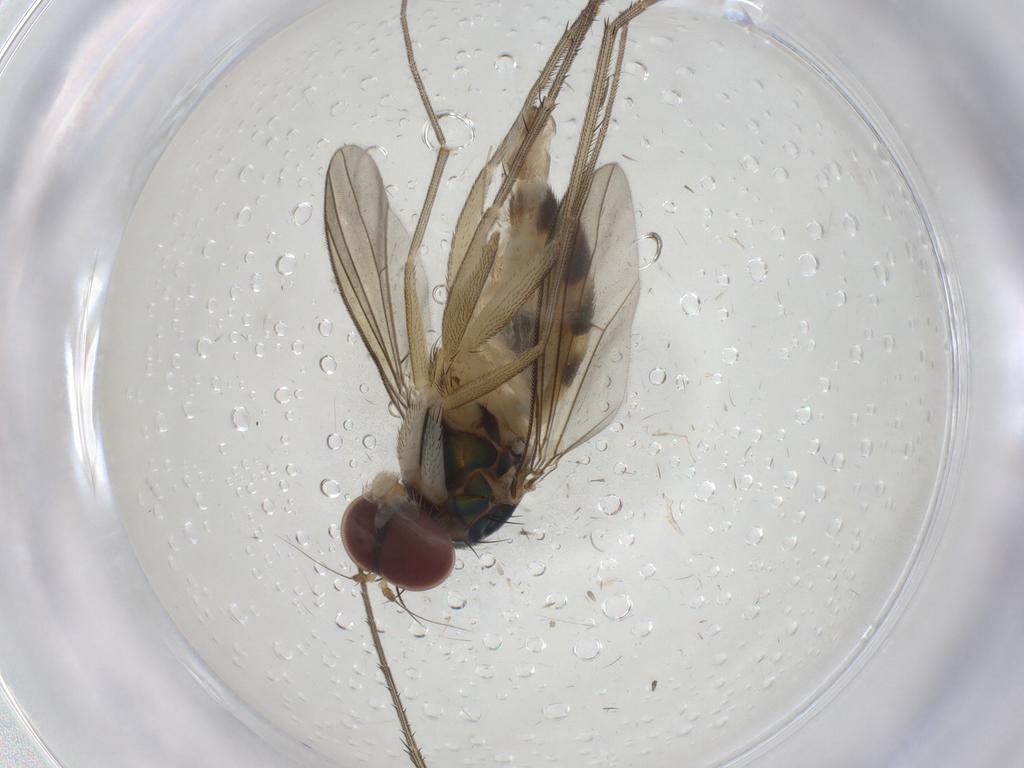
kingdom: Animalia
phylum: Arthropoda
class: Insecta
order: Diptera
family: Dolichopodidae
